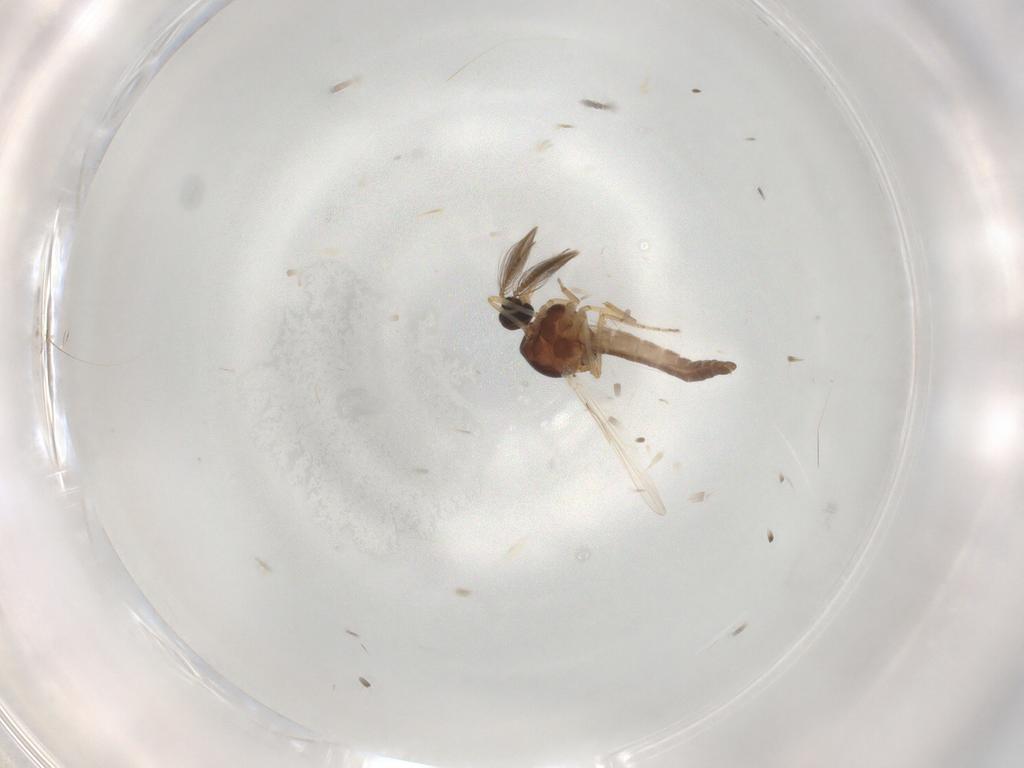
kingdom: Animalia
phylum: Arthropoda
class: Insecta
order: Diptera
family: Ceratopogonidae
